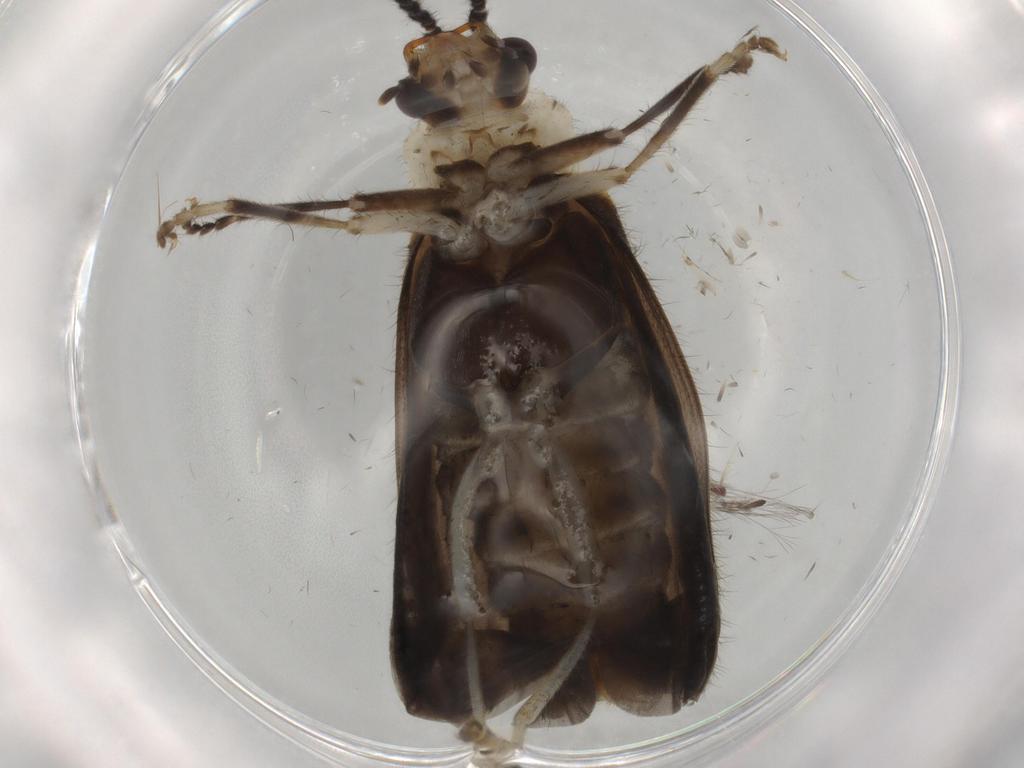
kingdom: Animalia
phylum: Arthropoda
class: Insecta
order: Coleoptera
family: Cantharidae
